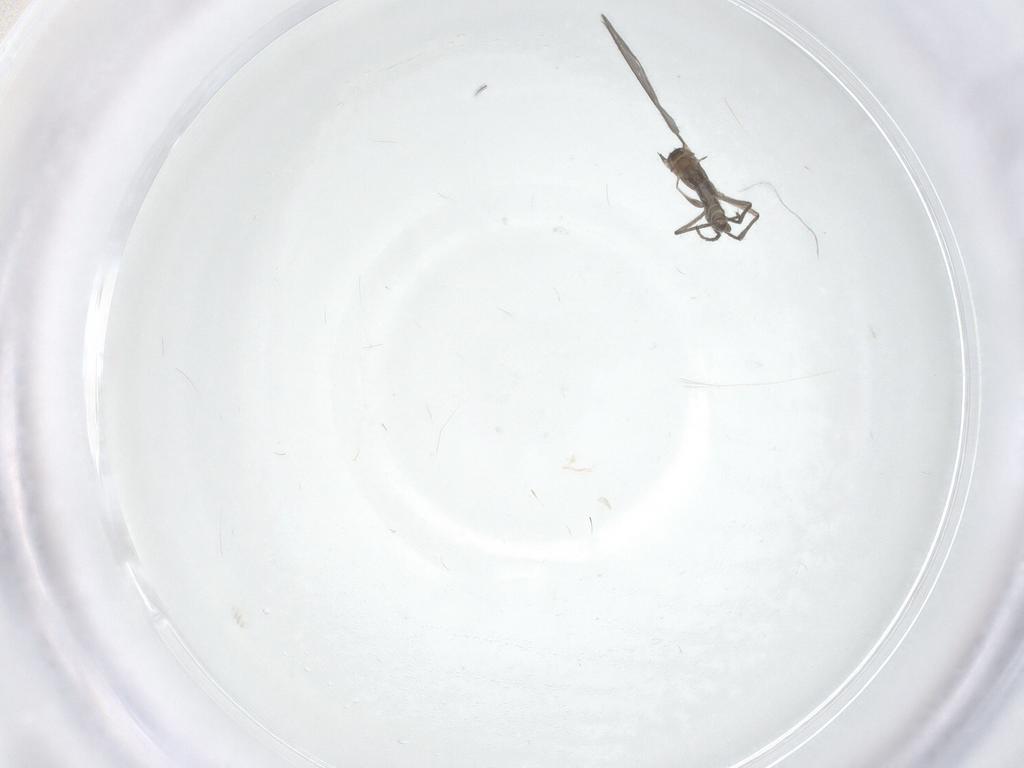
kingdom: Animalia
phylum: Arthropoda
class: Insecta
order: Diptera
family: Sciaridae
